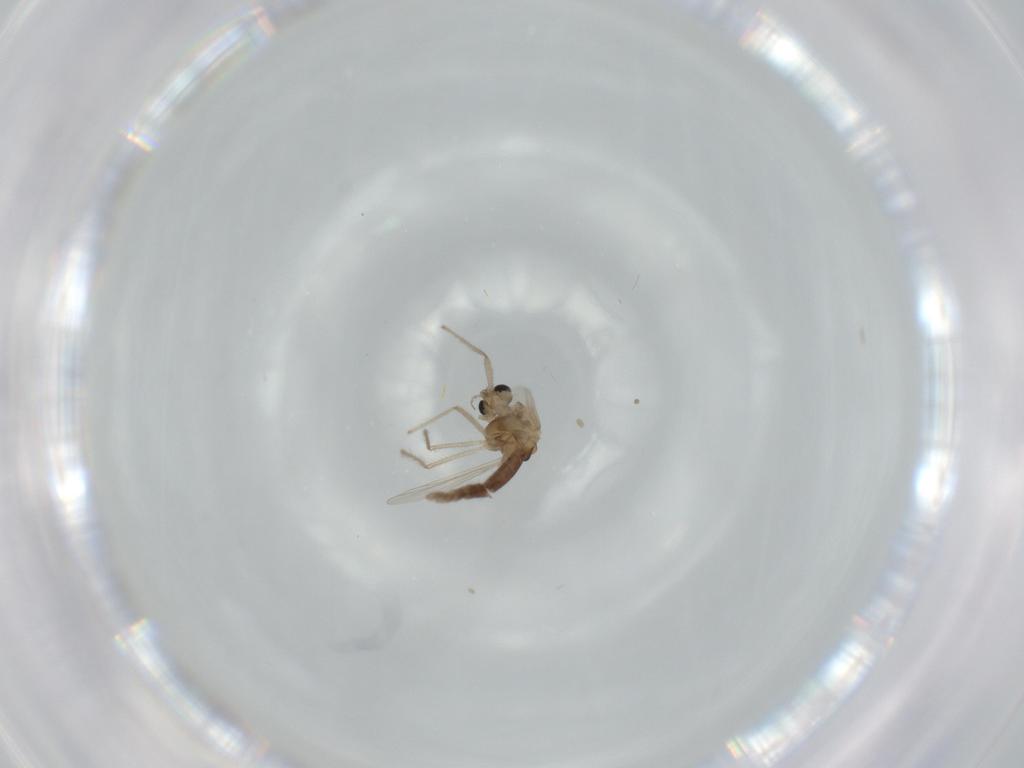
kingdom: Animalia
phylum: Arthropoda
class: Insecta
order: Diptera
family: Chironomidae
